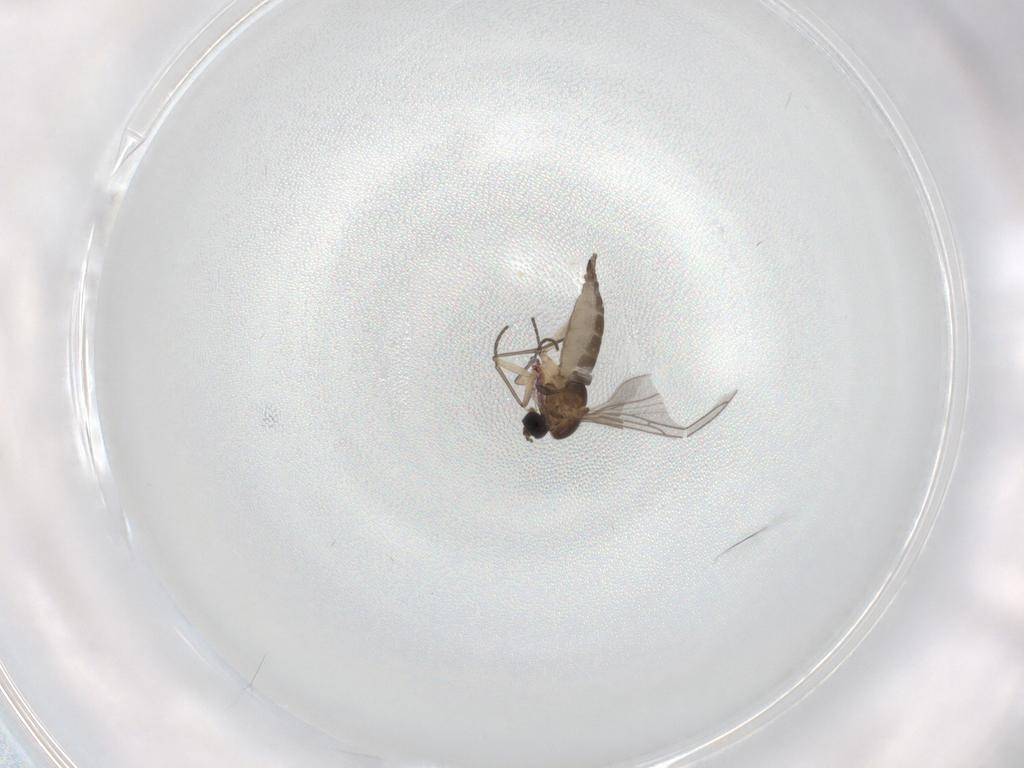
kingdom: Animalia
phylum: Arthropoda
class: Insecta
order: Diptera
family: Sciaridae
